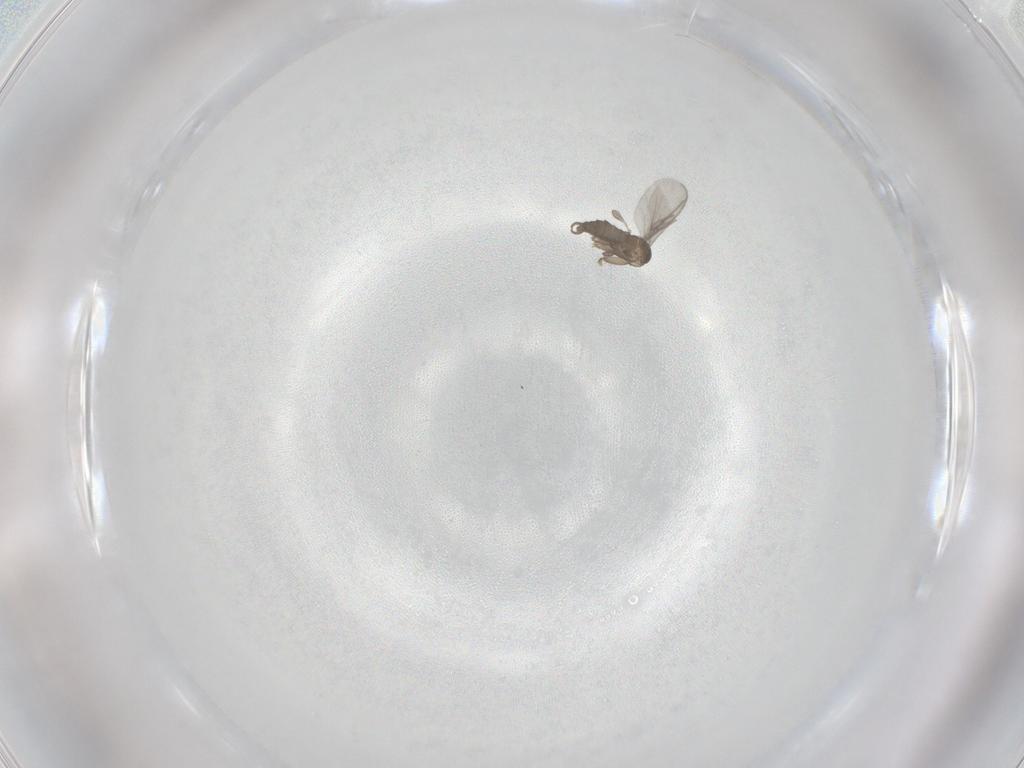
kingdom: Animalia
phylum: Arthropoda
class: Insecta
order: Diptera
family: Sciaridae
